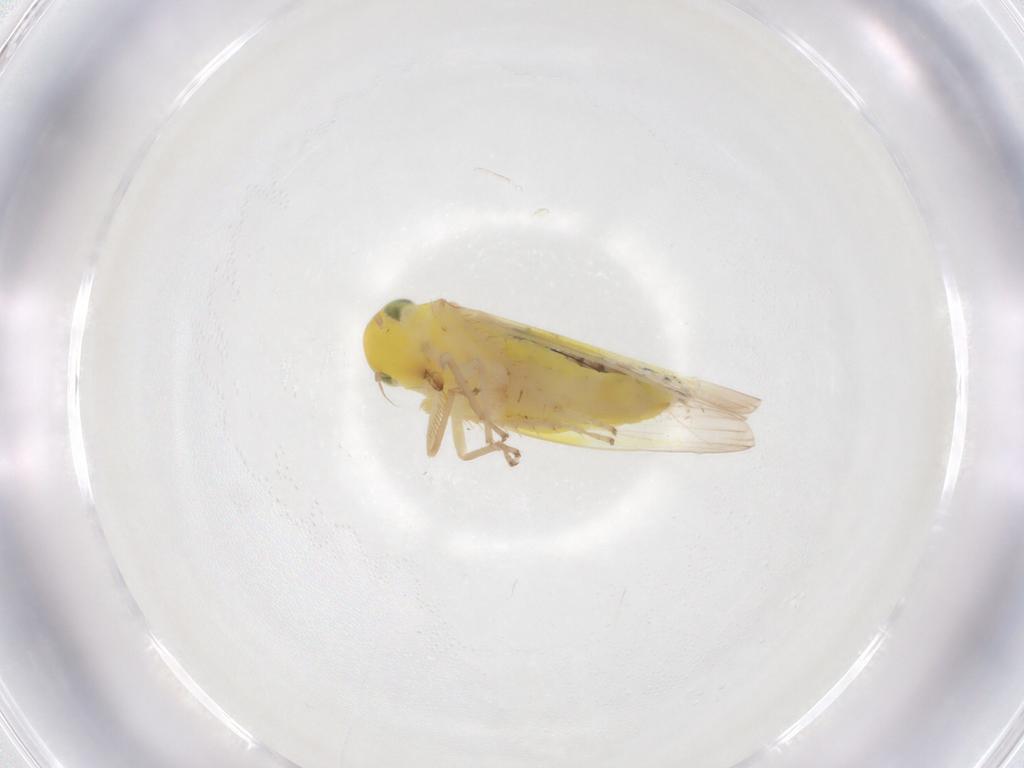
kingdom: Animalia
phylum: Arthropoda
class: Insecta
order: Hemiptera
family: Cicadellidae
